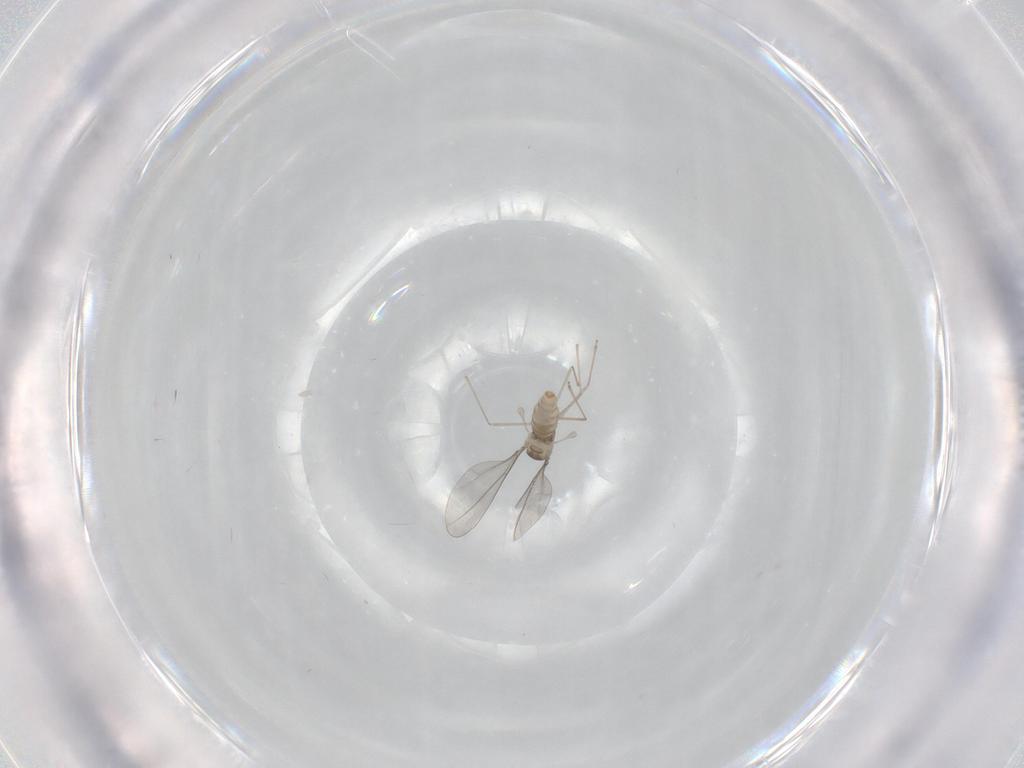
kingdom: Animalia
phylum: Arthropoda
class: Insecta
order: Diptera
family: Cecidomyiidae
